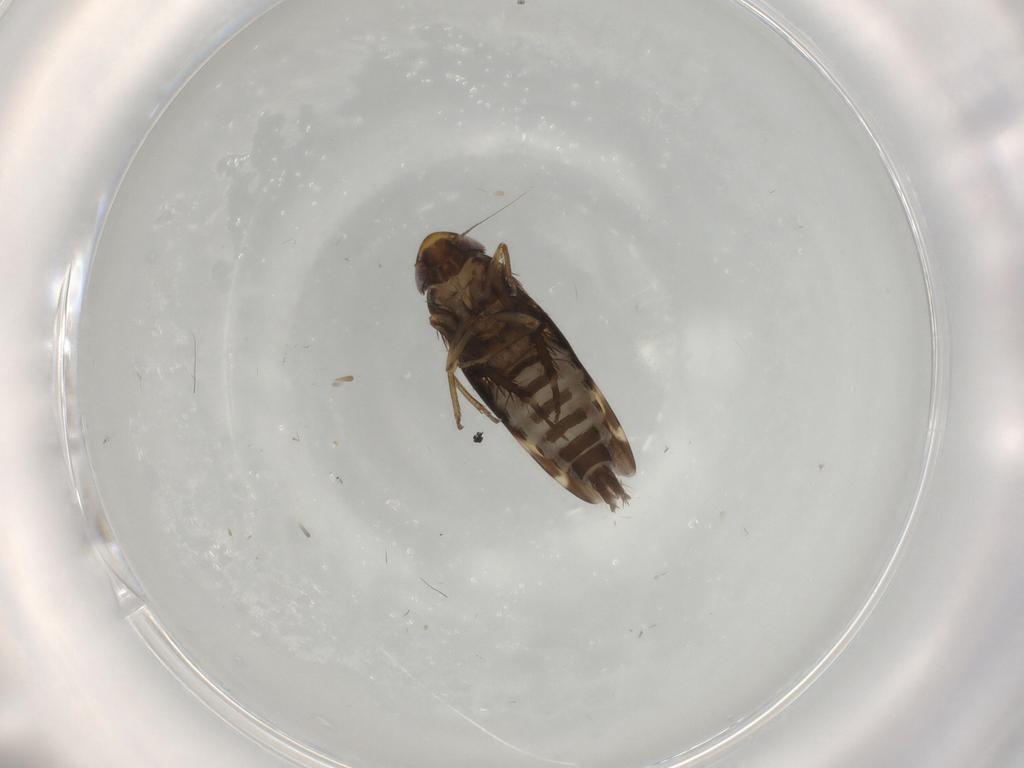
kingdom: Animalia
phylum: Arthropoda
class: Insecta
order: Hemiptera
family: Cicadellidae
